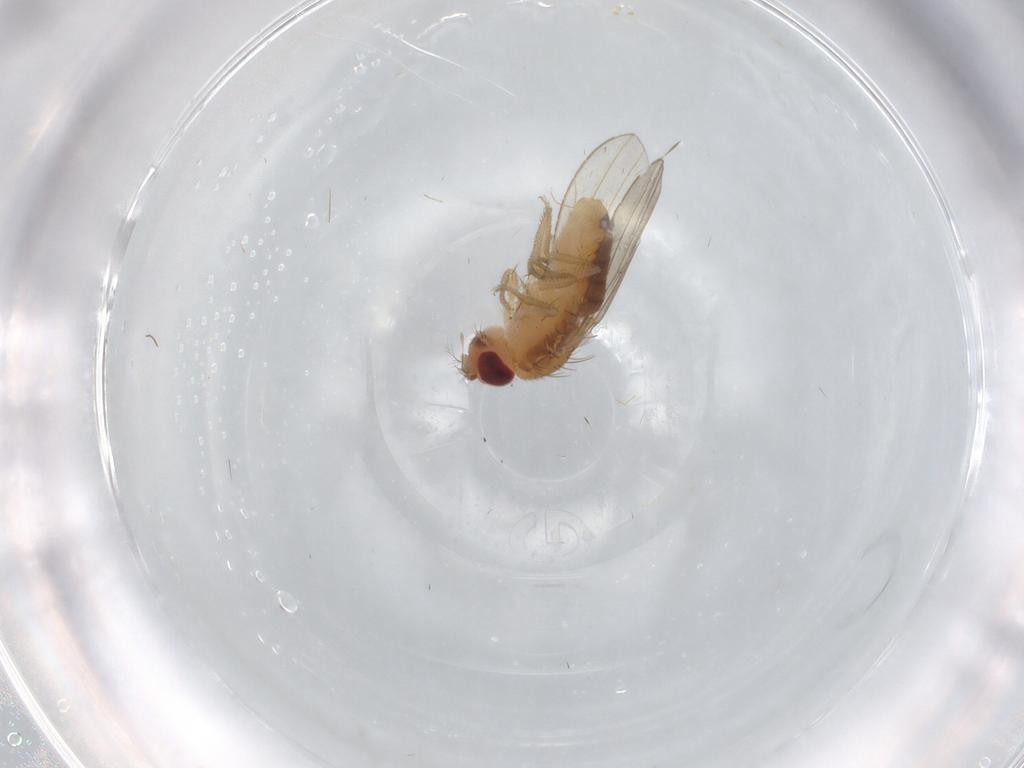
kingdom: Animalia
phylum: Arthropoda
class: Insecta
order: Diptera
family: Drosophilidae
